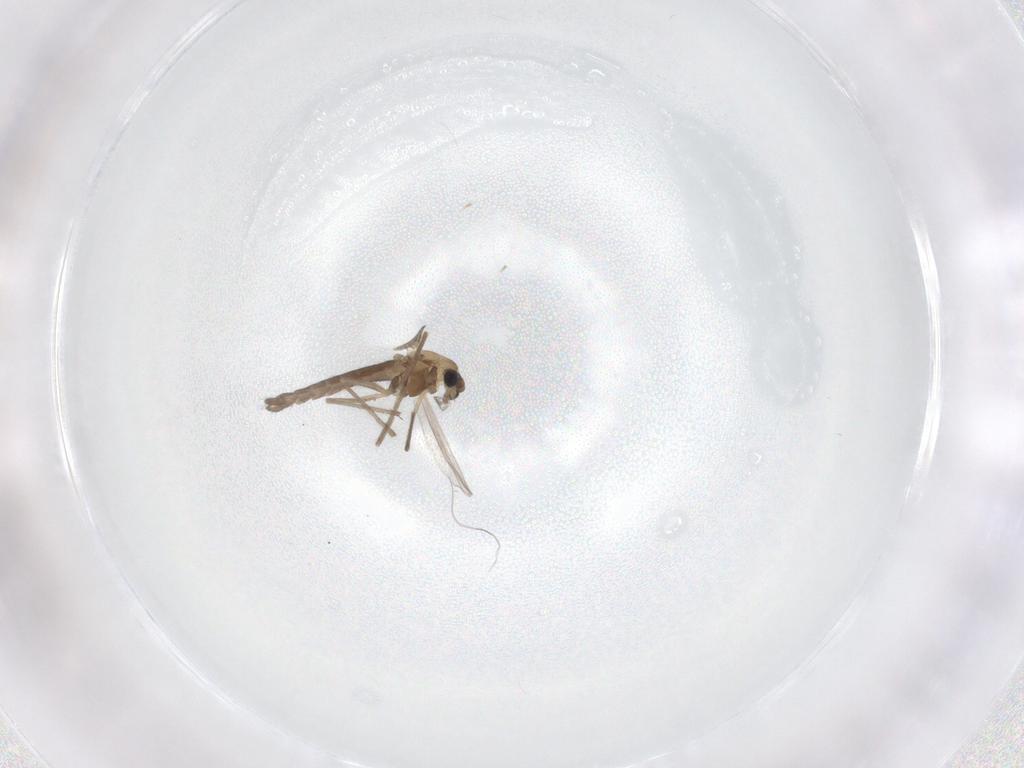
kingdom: Animalia
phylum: Arthropoda
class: Insecta
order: Diptera
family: Chironomidae
